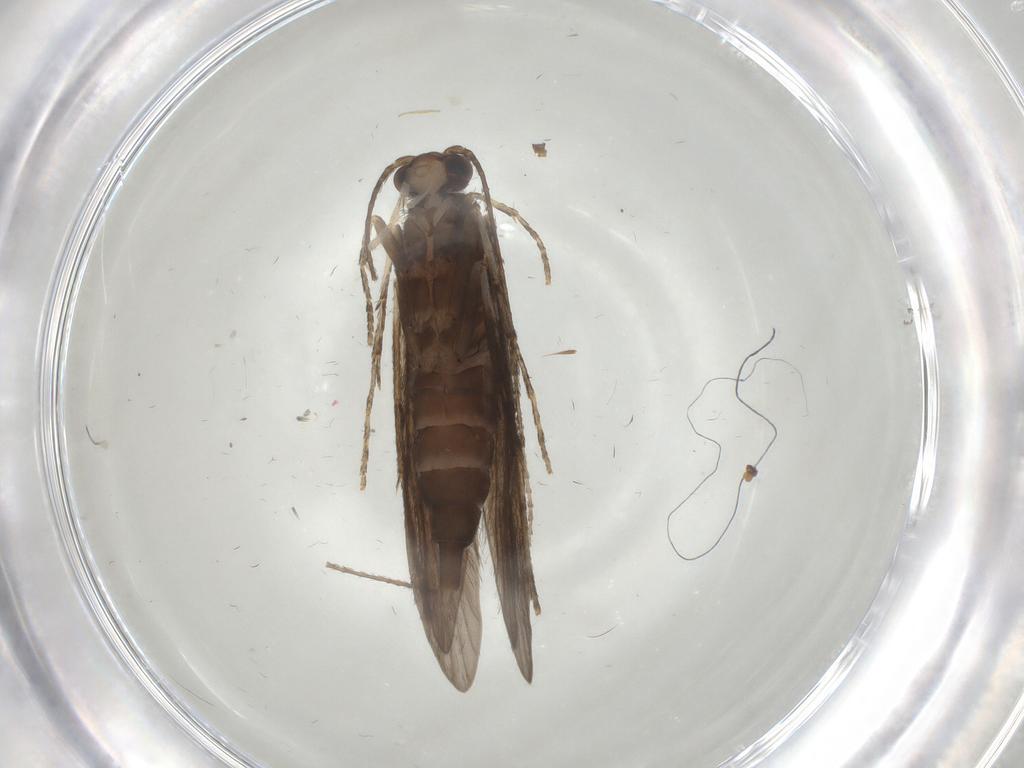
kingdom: Animalia
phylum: Arthropoda
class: Insecta
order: Trichoptera
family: Xiphocentronidae
